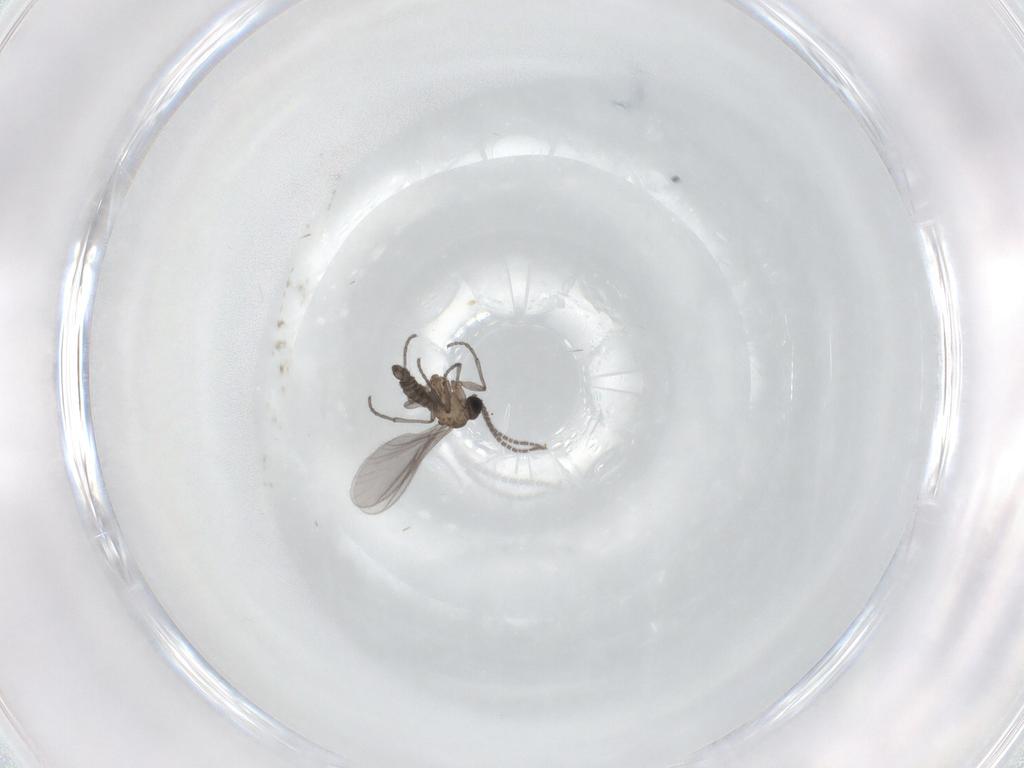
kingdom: Animalia
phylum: Arthropoda
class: Insecta
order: Diptera
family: Sciaridae
